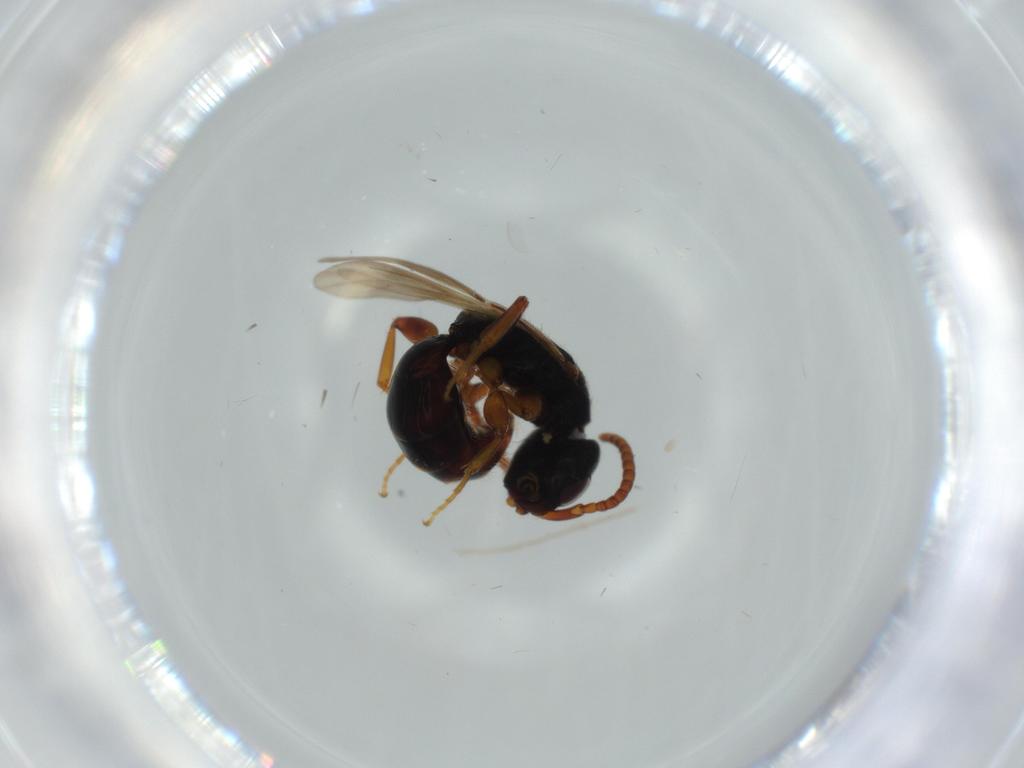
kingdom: Animalia
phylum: Arthropoda
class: Insecta
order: Hymenoptera
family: Bethylidae
